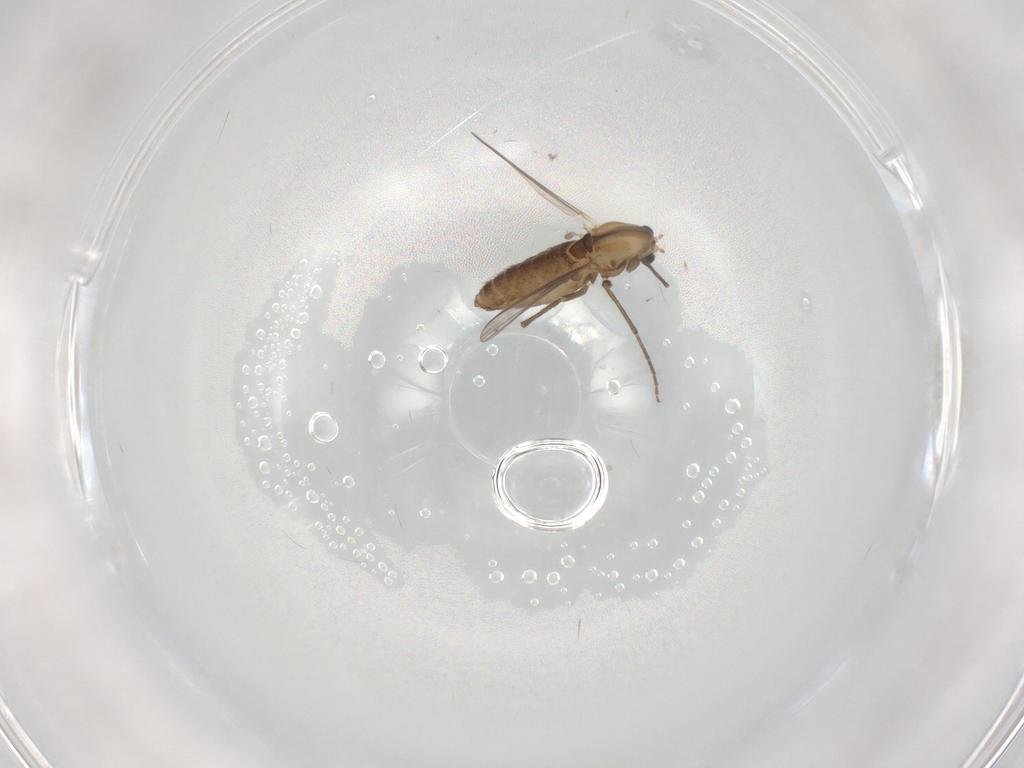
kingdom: Animalia
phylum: Arthropoda
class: Insecta
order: Diptera
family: Chironomidae
